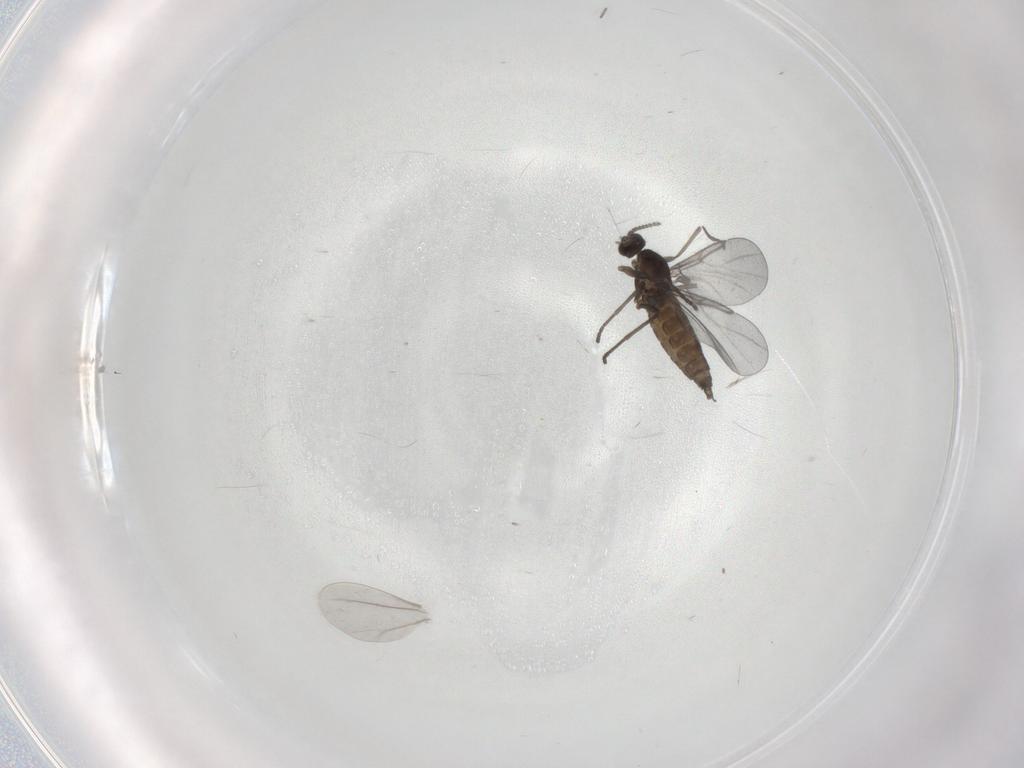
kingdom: Animalia
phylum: Arthropoda
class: Insecta
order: Diptera
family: Cecidomyiidae
